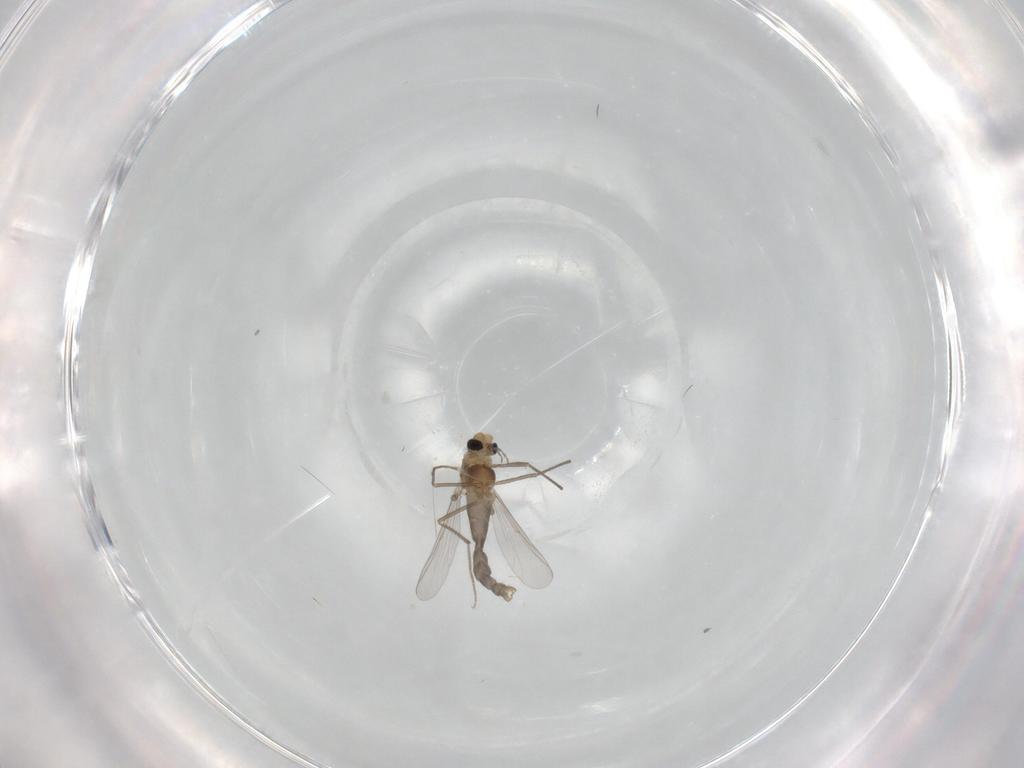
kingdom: Animalia
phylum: Arthropoda
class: Insecta
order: Diptera
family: Chironomidae
